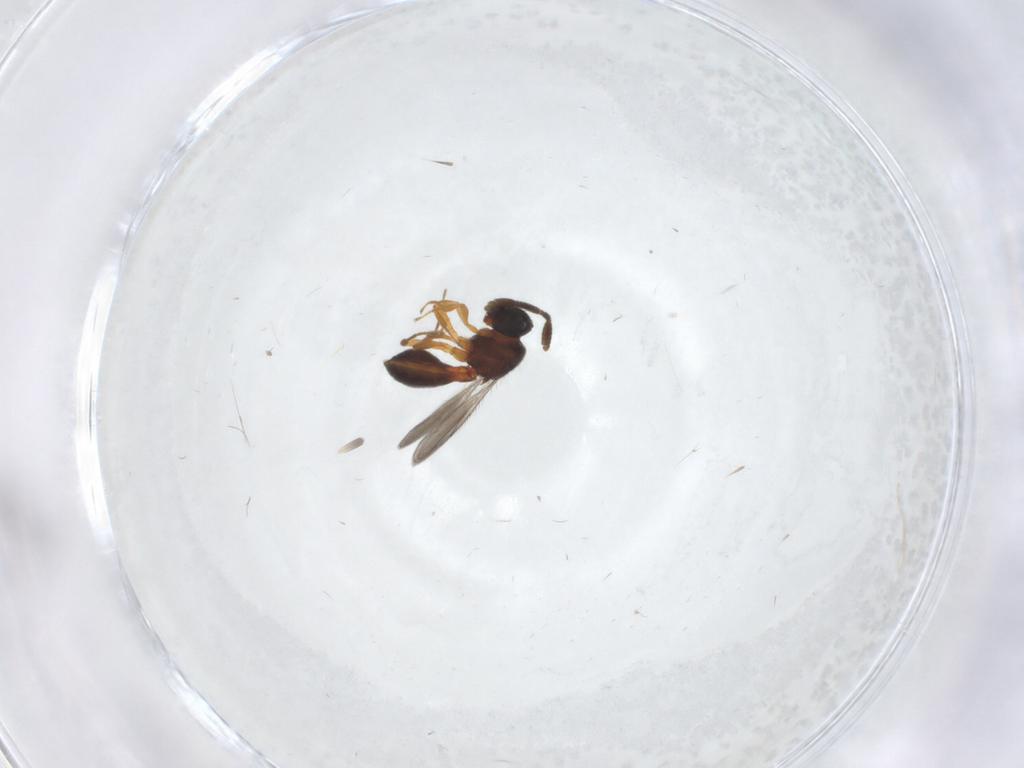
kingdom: Animalia
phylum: Arthropoda
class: Insecta
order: Hymenoptera
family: Scelionidae
